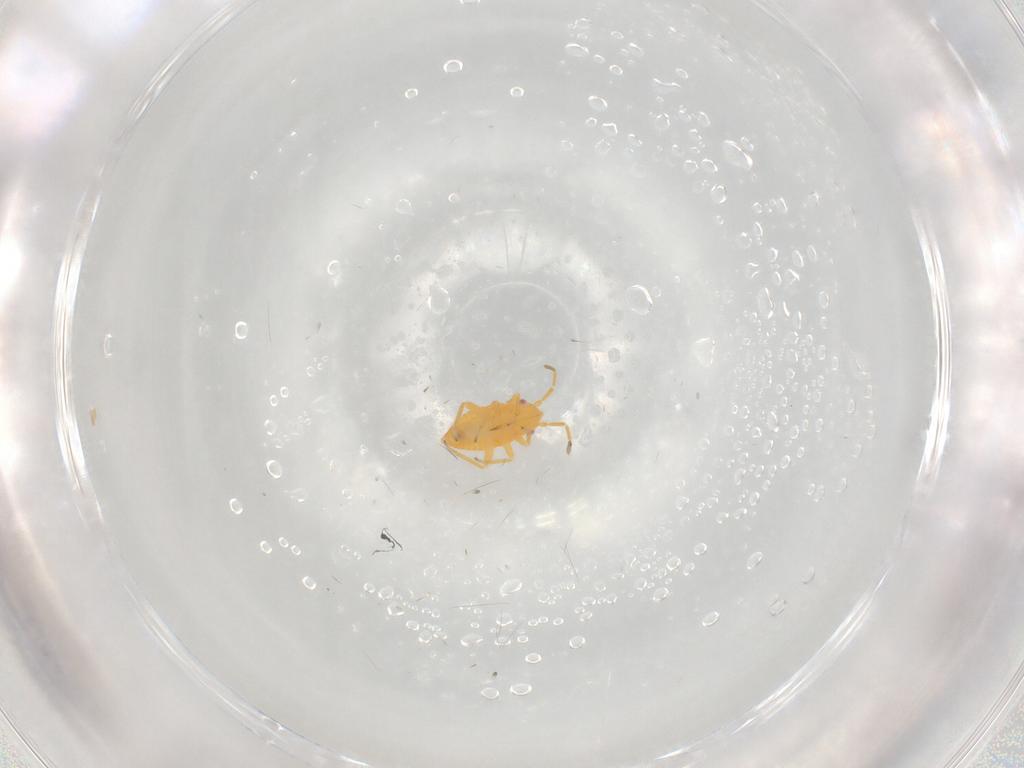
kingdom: Animalia
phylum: Arthropoda
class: Insecta
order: Hemiptera
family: Miridae
